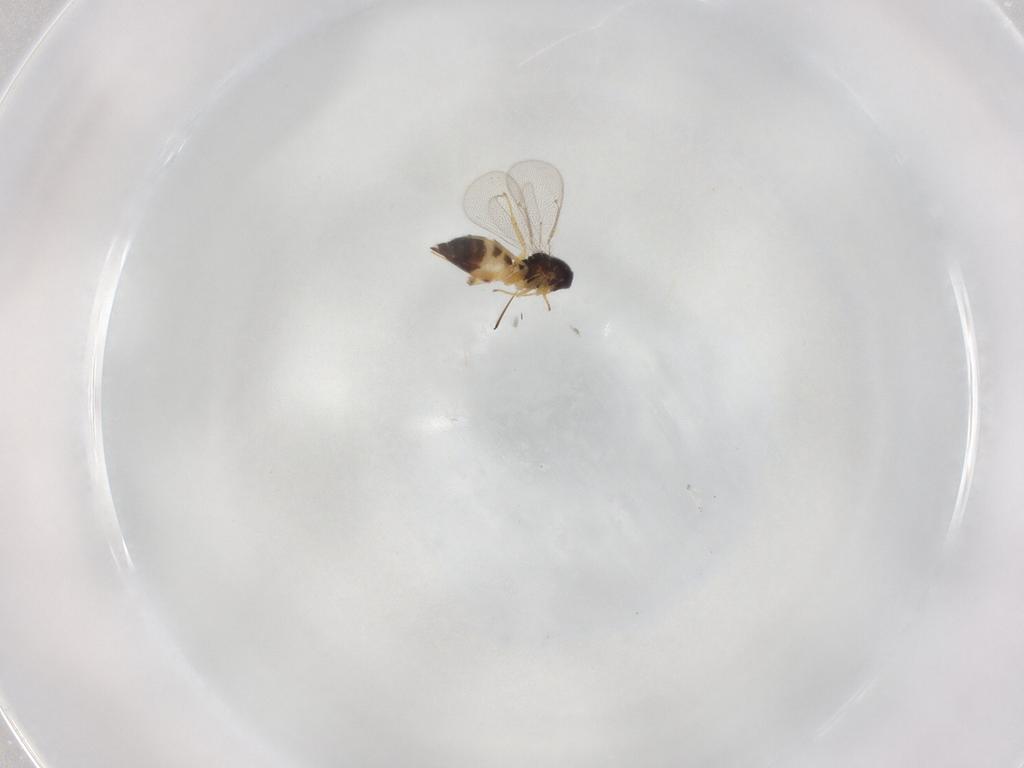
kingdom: Animalia
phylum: Arthropoda
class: Insecta
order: Hymenoptera
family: Eulophidae
